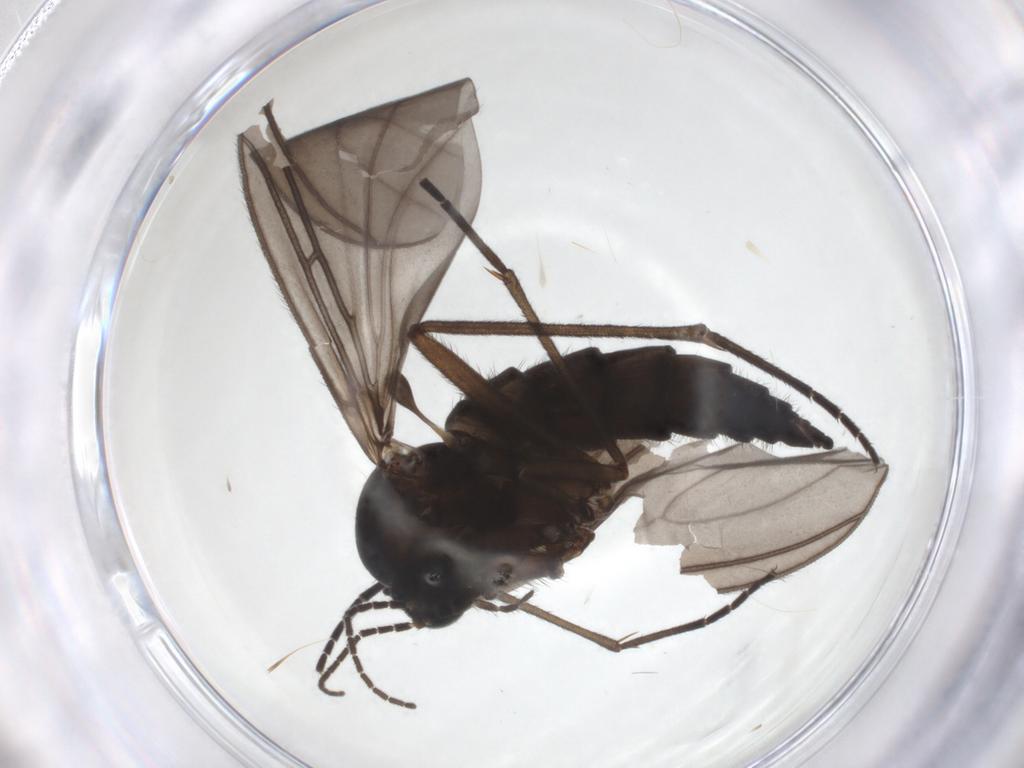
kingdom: Animalia
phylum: Arthropoda
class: Insecta
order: Diptera
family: Sciaridae
